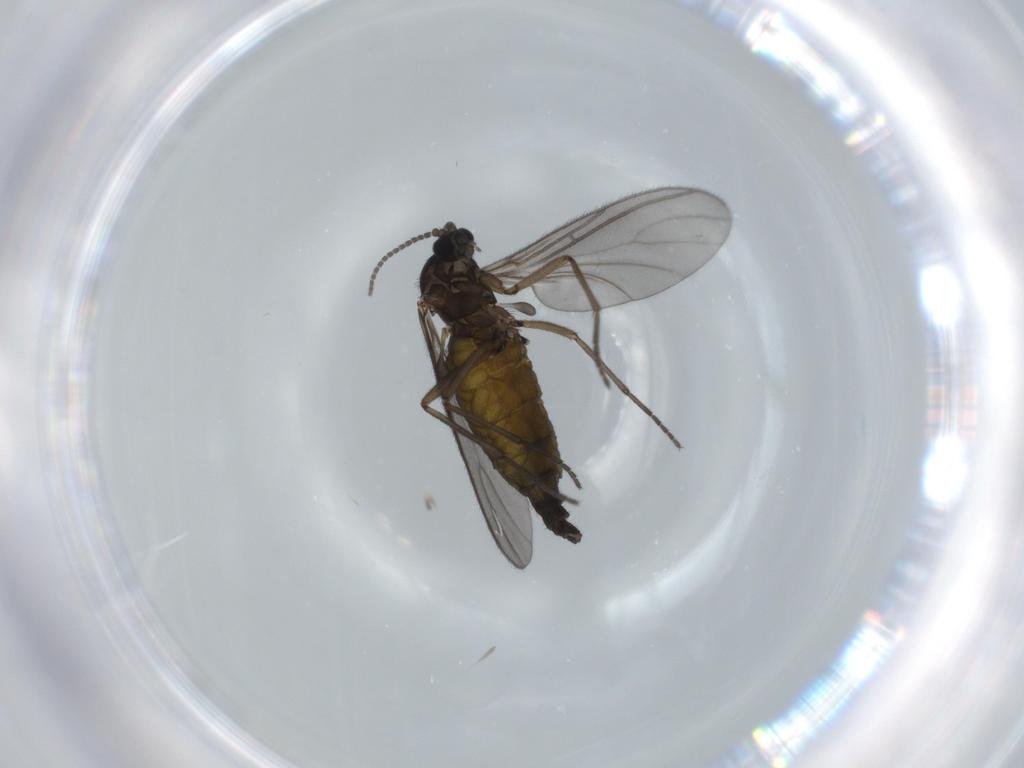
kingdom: Animalia
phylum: Arthropoda
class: Insecta
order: Diptera
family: Sciaridae
